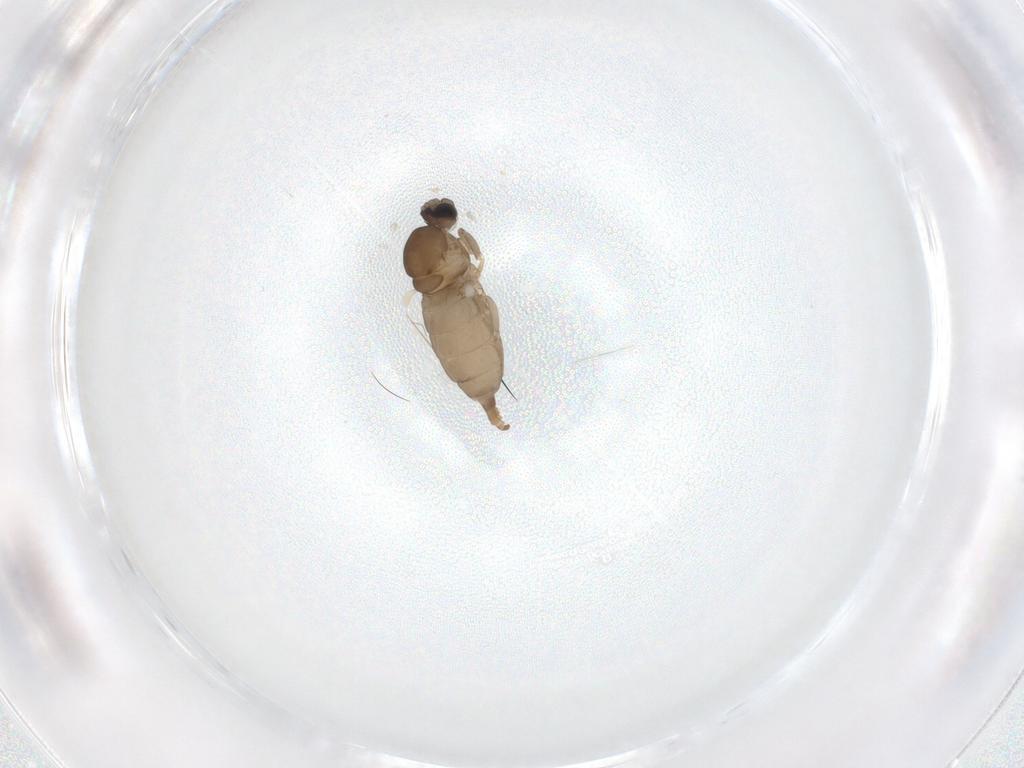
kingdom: Animalia
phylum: Arthropoda
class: Insecta
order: Diptera
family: Cecidomyiidae
